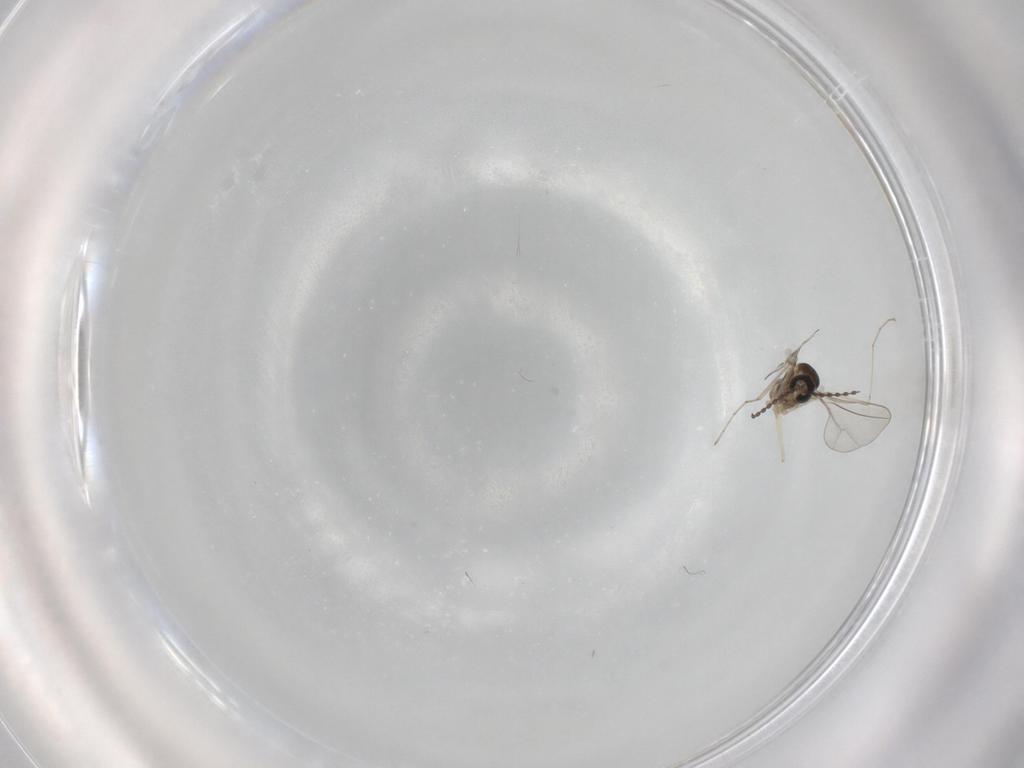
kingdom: Animalia
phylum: Arthropoda
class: Insecta
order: Diptera
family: Cecidomyiidae
